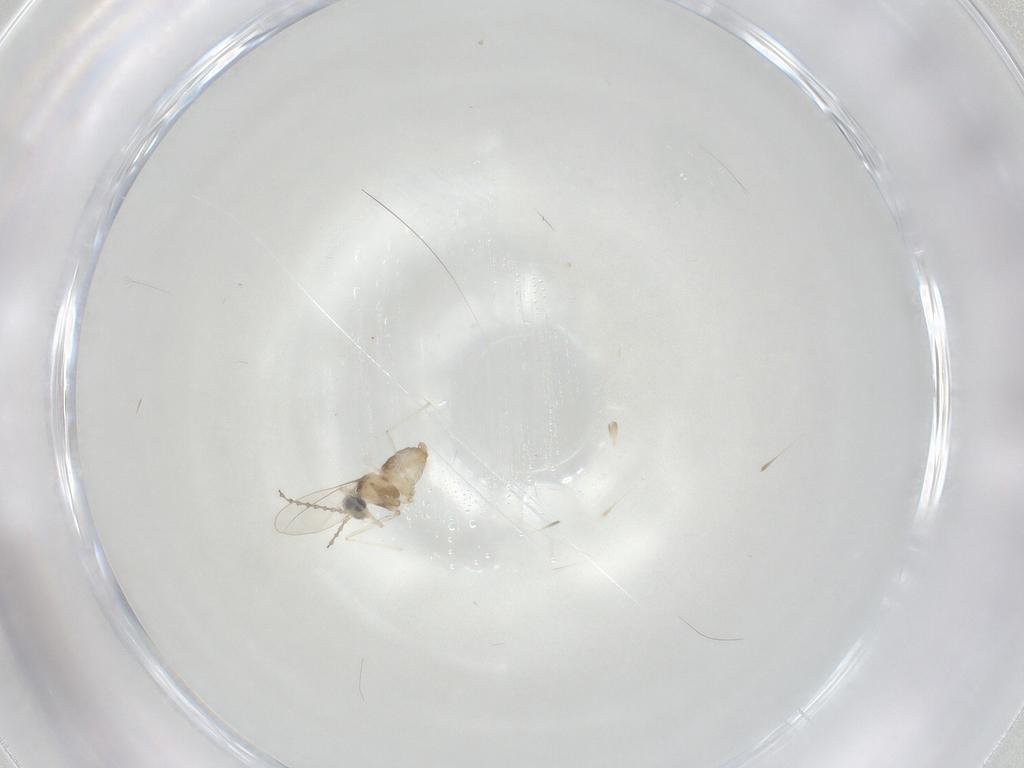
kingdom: Animalia
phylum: Arthropoda
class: Insecta
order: Diptera
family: Cecidomyiidae
